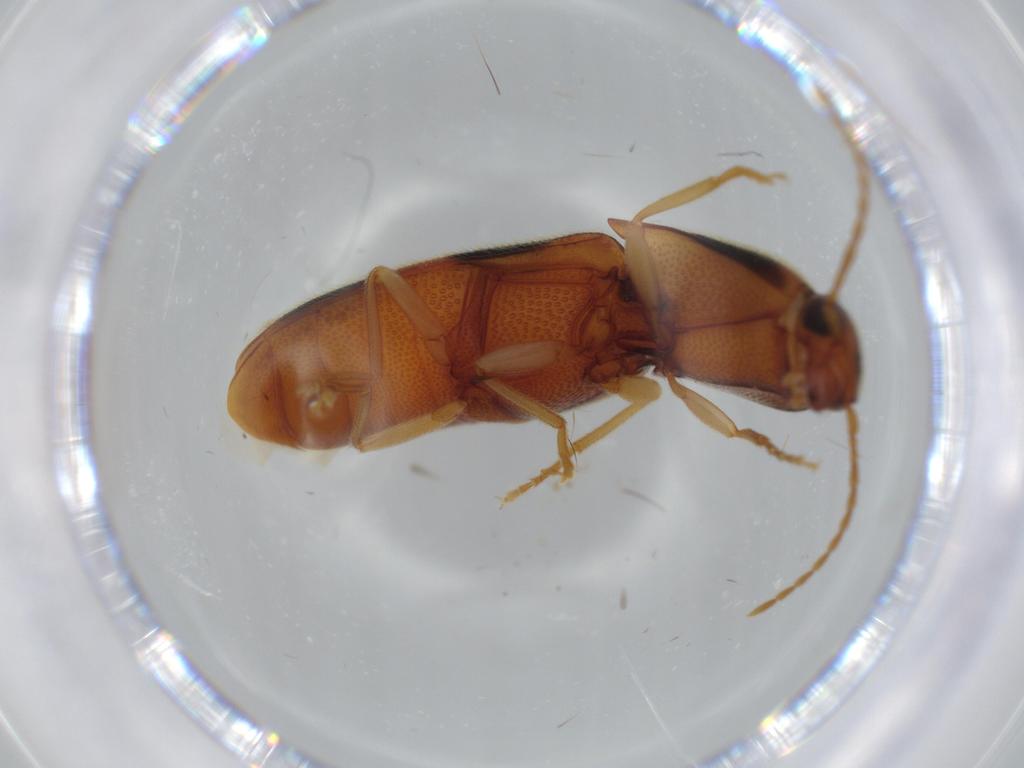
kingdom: Animalia
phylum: Arthropoda
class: Insecta
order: Coleoptera
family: Elateridae
